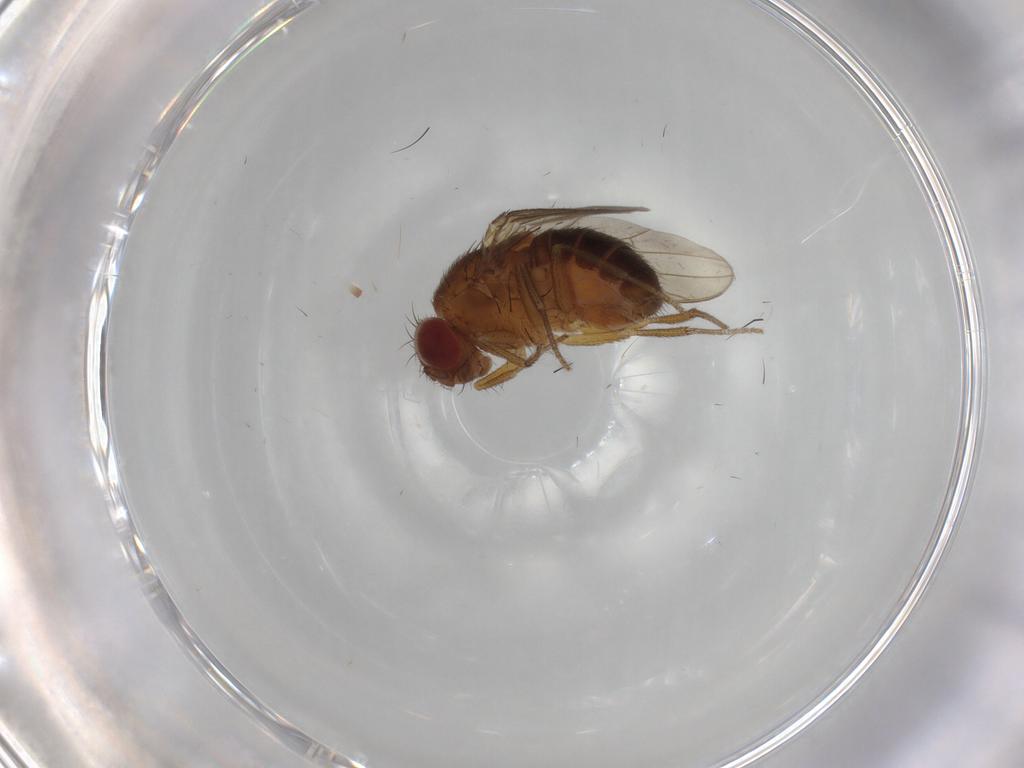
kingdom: Animalia
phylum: Arthropoda
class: Insecta
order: Diptera
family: Drosophilidae
